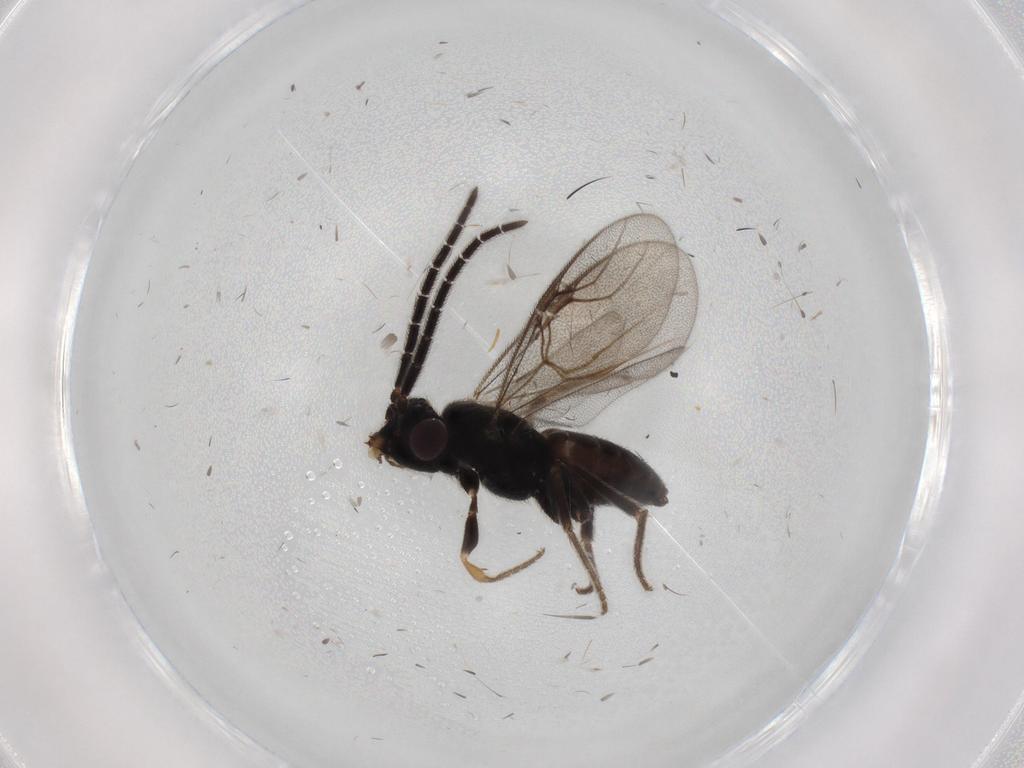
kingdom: Animalia
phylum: Arthropoda
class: Insecta
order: Hymenoptera
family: Dryinidae
